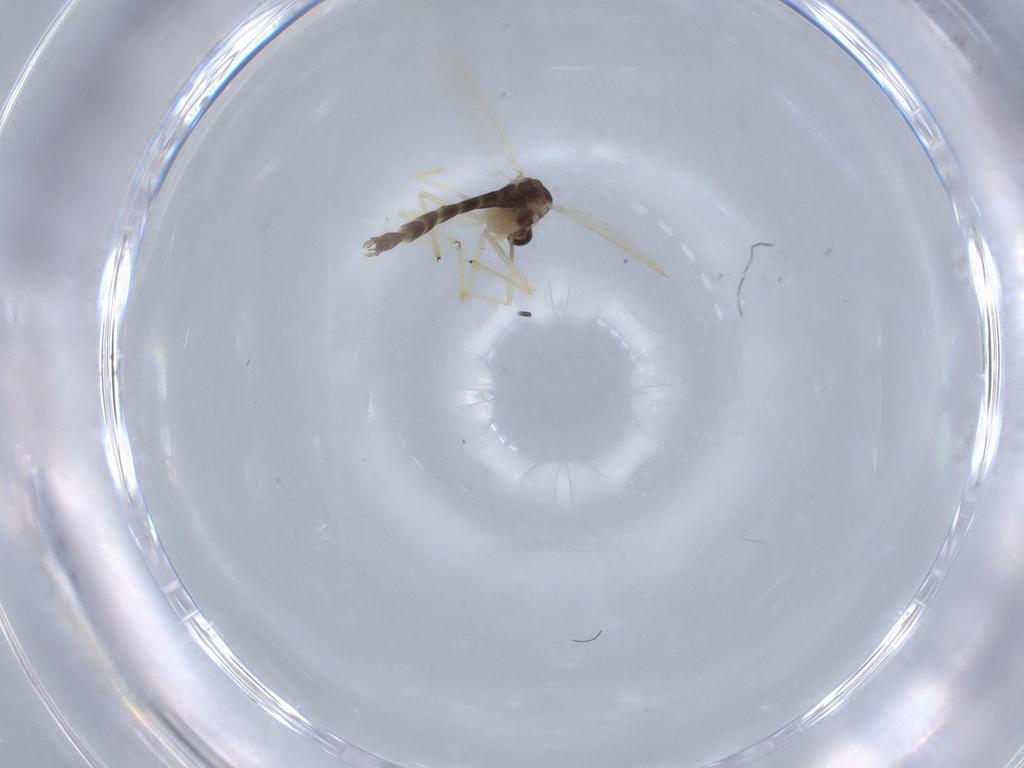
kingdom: Animalia
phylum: Arthropoda
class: Insecta
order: Diptera
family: Chironomidae
